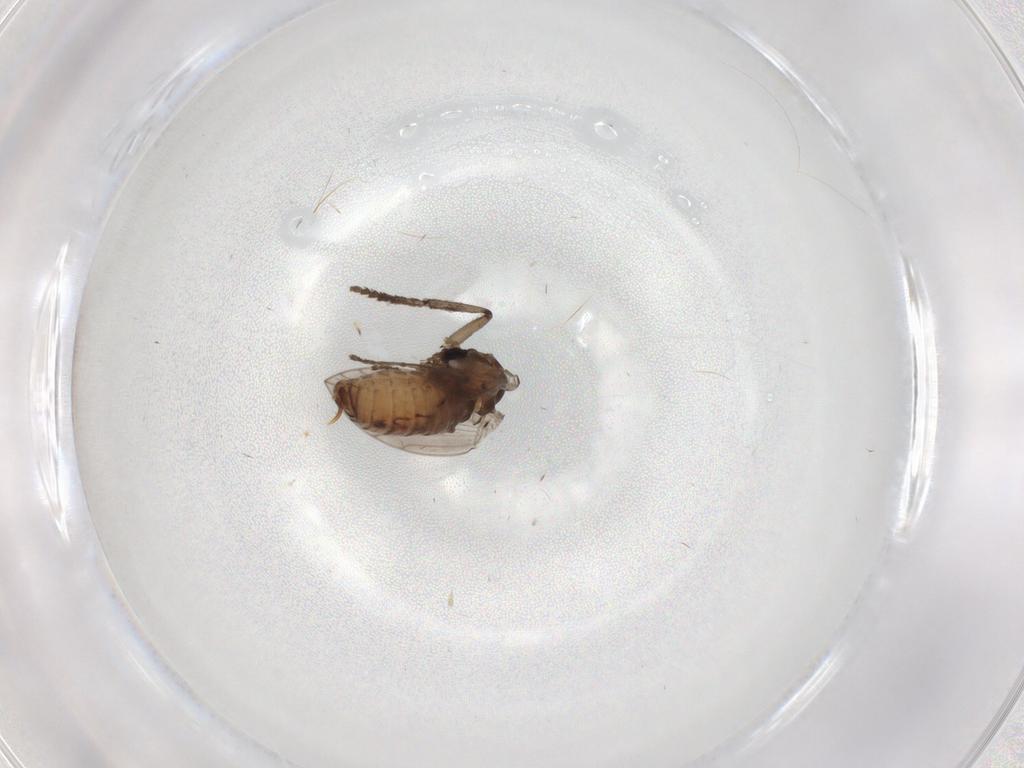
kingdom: Animalia
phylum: Arthropoda
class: Insecta
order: Diptera
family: Psychodidae
